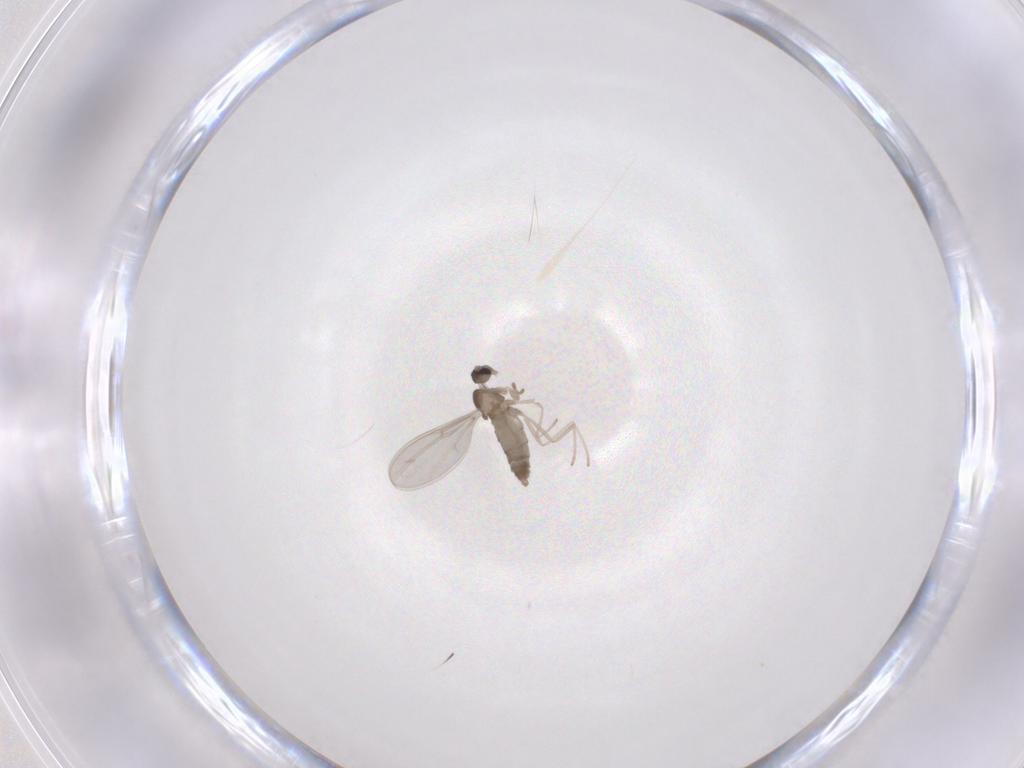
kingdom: Animalia
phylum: Arthropoda
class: Insecta
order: Diptera
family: Cecidomyiidae
